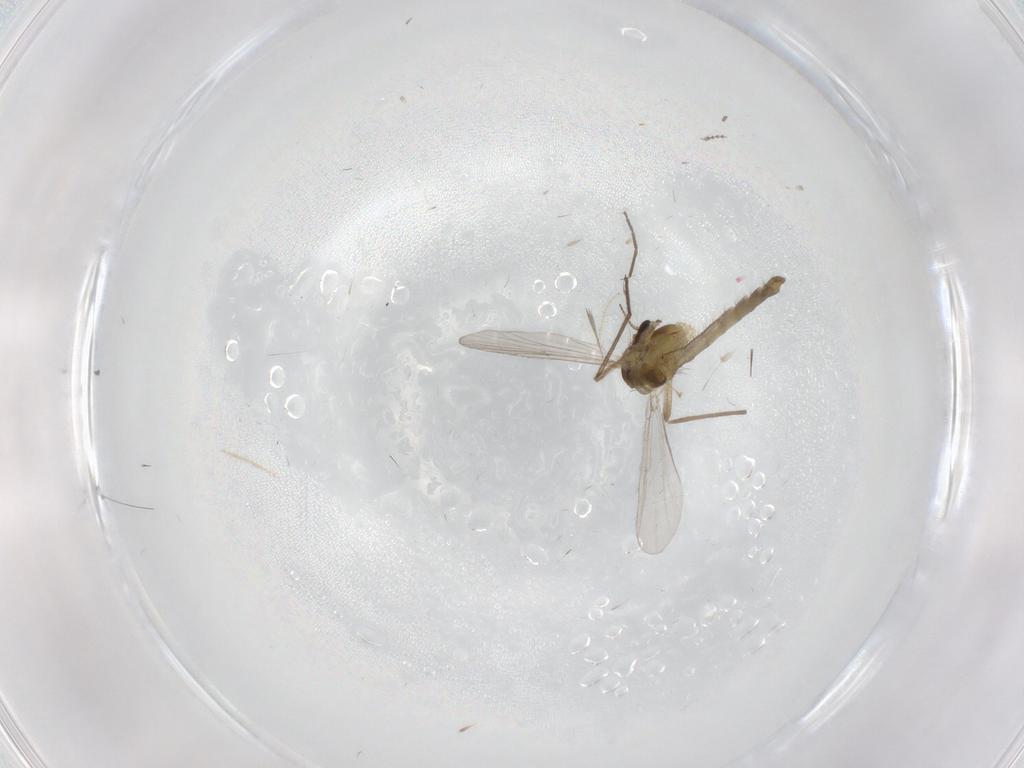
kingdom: Animalia
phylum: Arthropoda
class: Insecta
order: Diptera
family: Chironomidae
